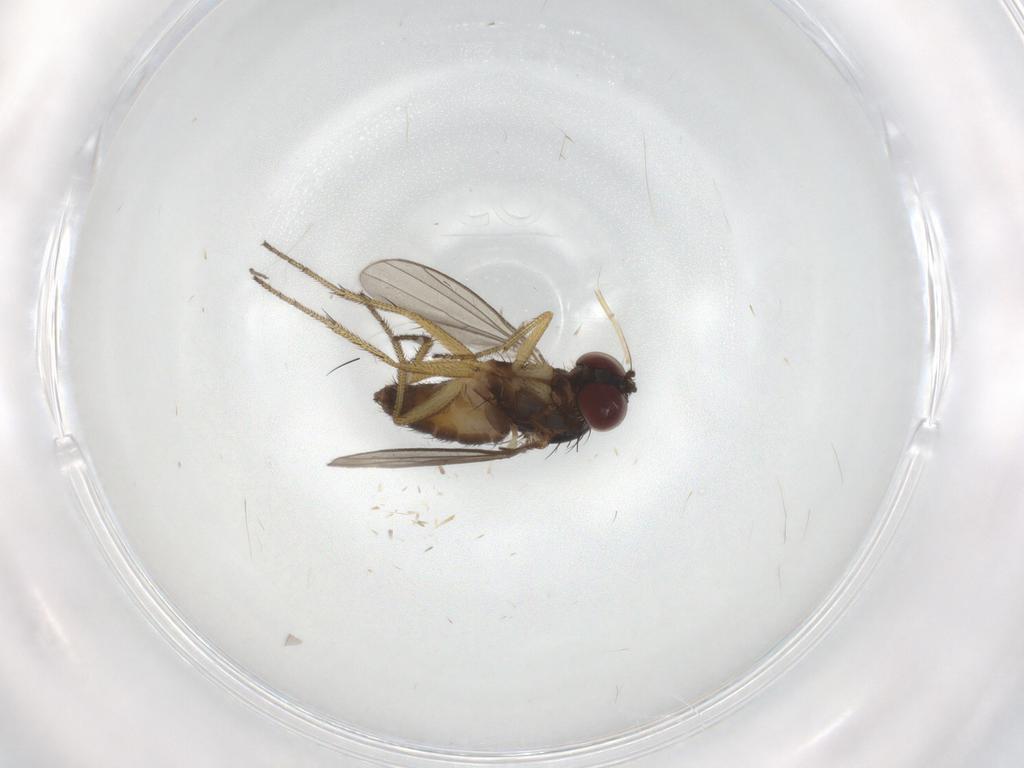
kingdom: Animalia
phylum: Arthropoda
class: Insecta
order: Diptera
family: Chironomidae
